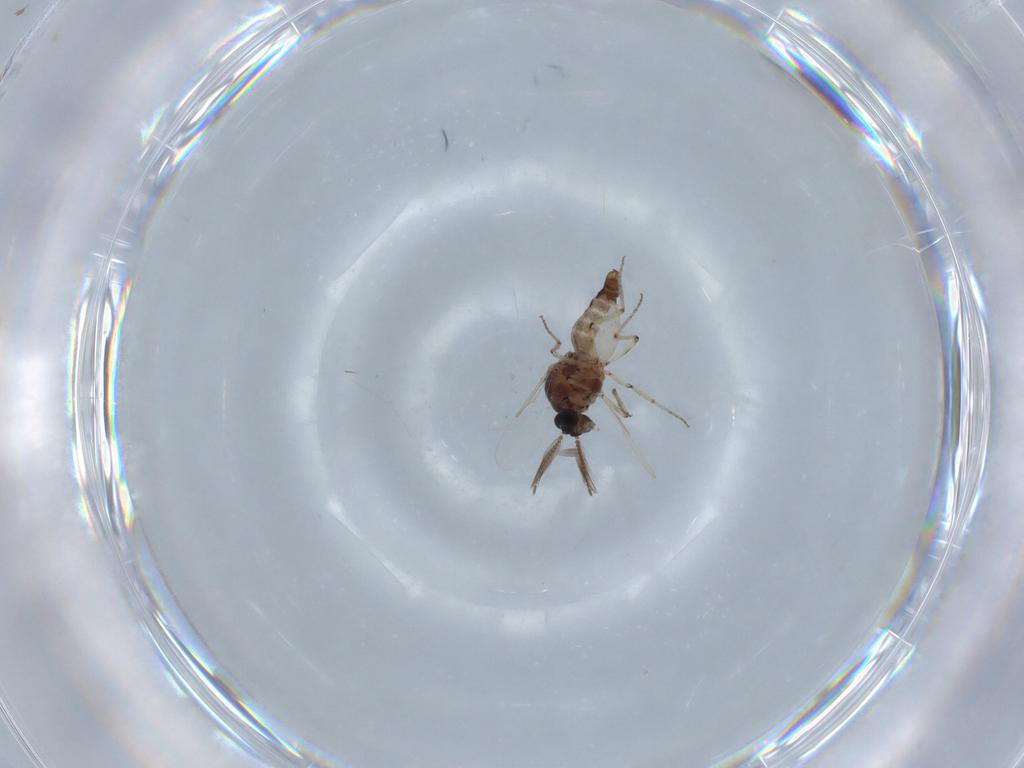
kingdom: Animalia
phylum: Arthropoda
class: Insecta
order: Diptera
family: Ceratopogonidae
